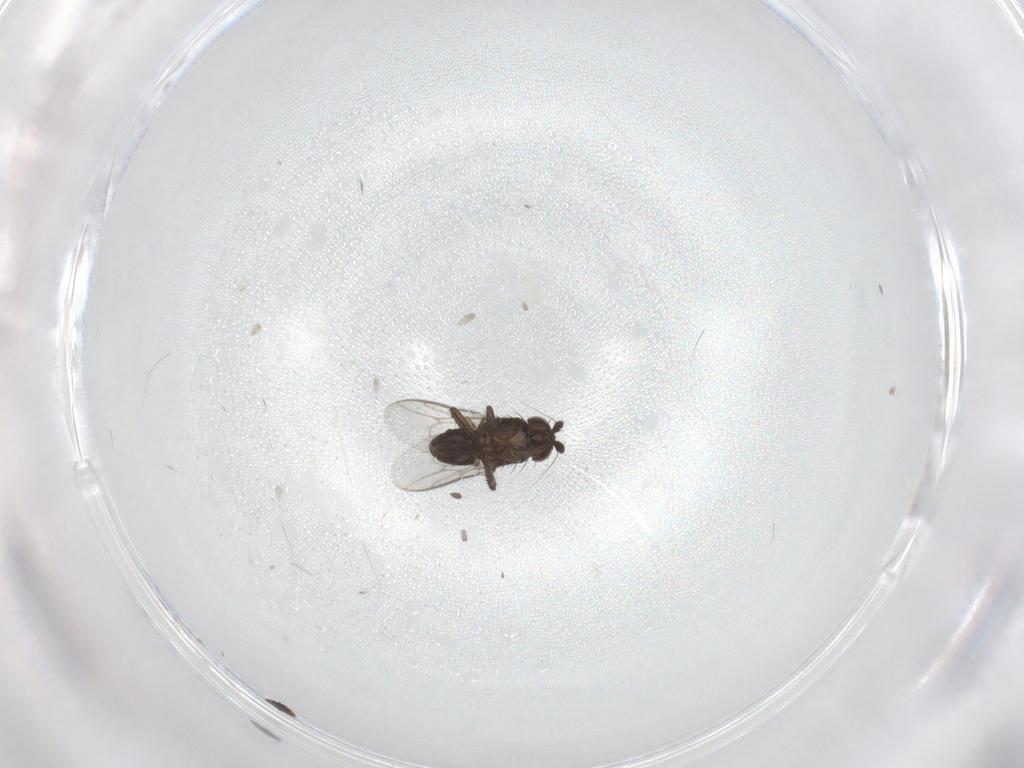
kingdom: Animalia
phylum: Arthropoda
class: Insecta
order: Diptera
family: Sphaeroceridae
